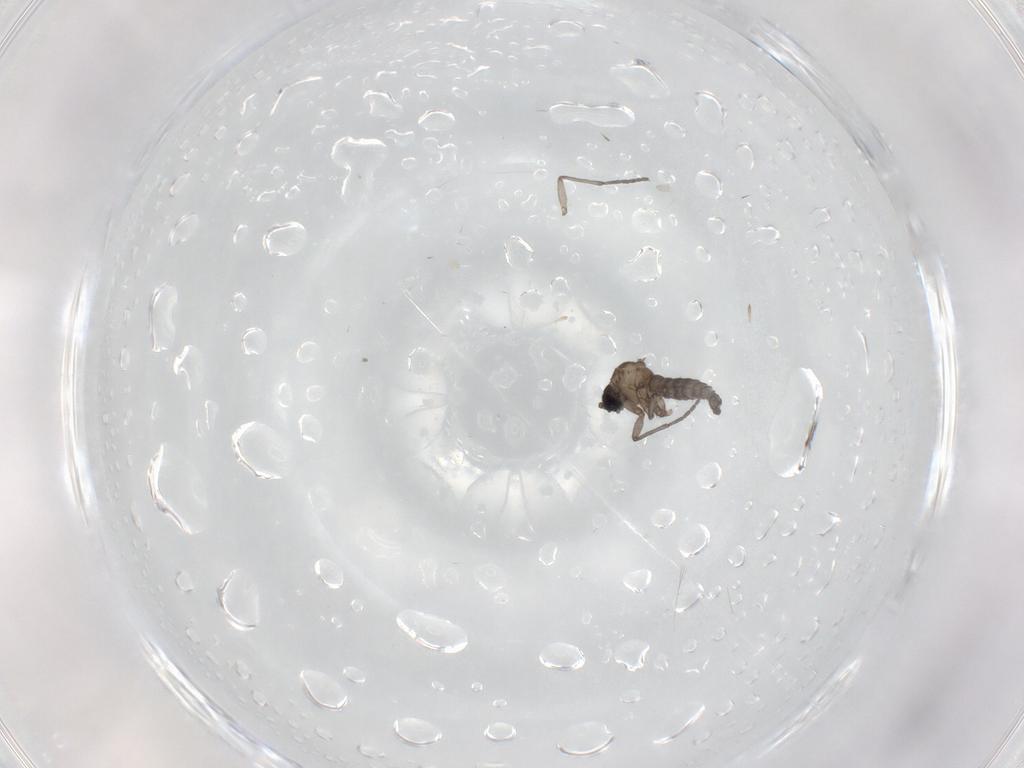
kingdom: Animalia
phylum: Arthropoda
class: Insecta
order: Diptera
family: Sciaridae
